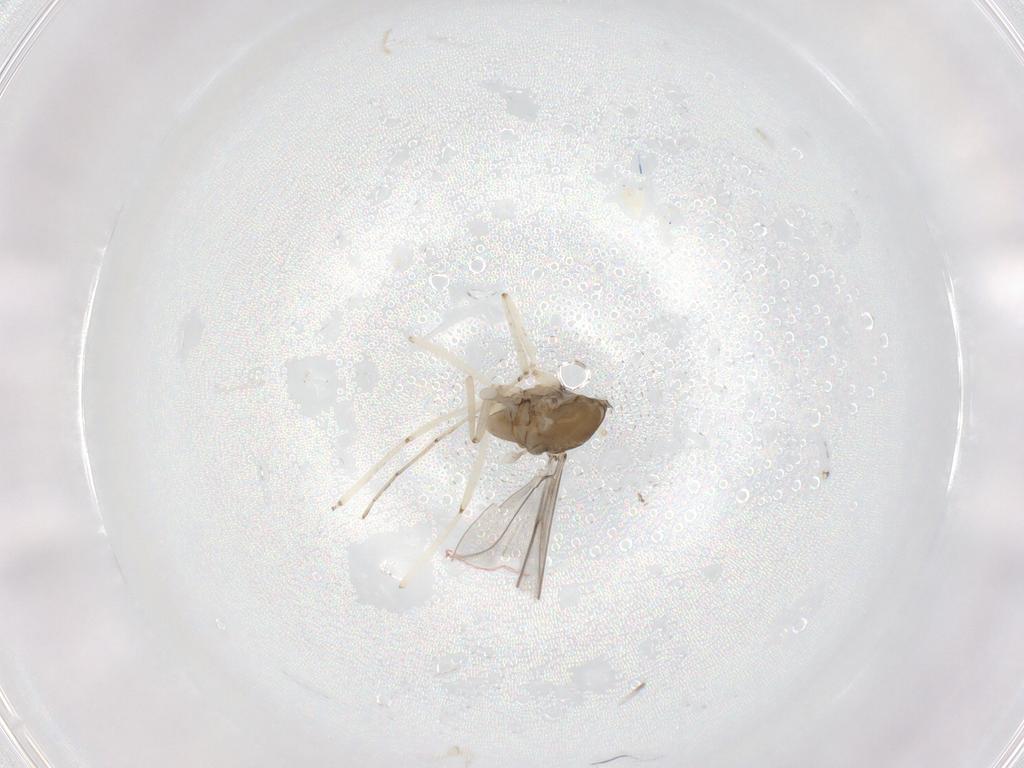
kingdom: Animalia
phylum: Arthropoda
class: Insecta
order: Diptera
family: Cecidomyiidae
